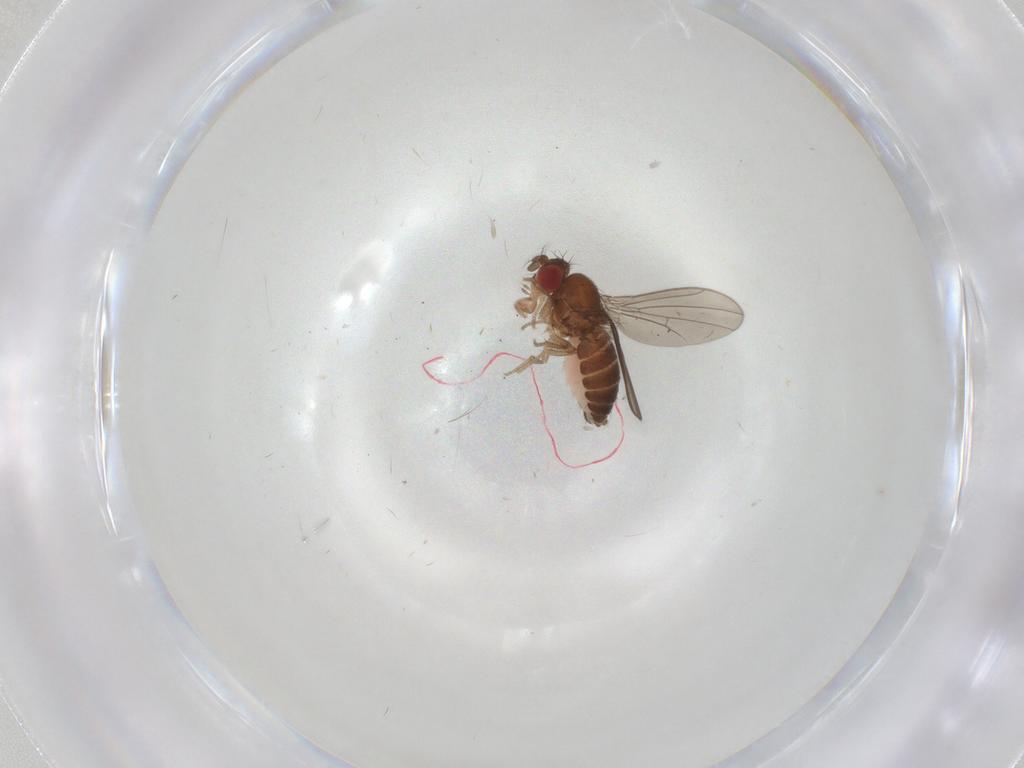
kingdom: Animalia
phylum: Arthropoda
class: Insecta
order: Diptera
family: Drosophilidae
